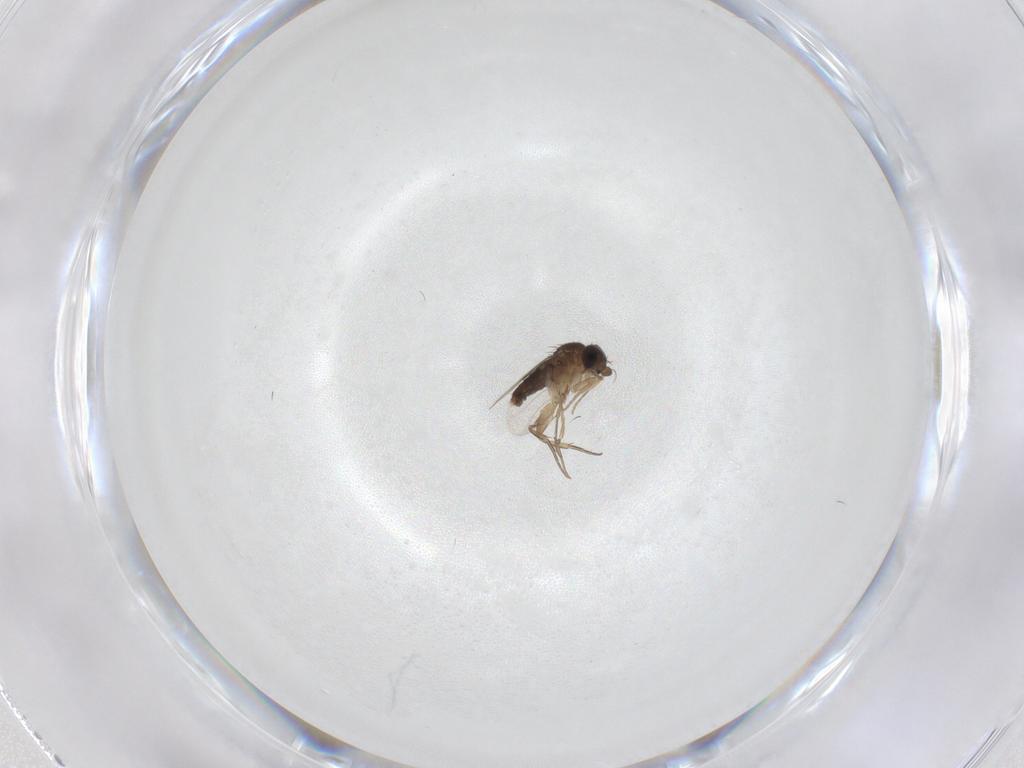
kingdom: Animalia
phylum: Arthropoda
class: Insecta
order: Diptera
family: Phoridae
